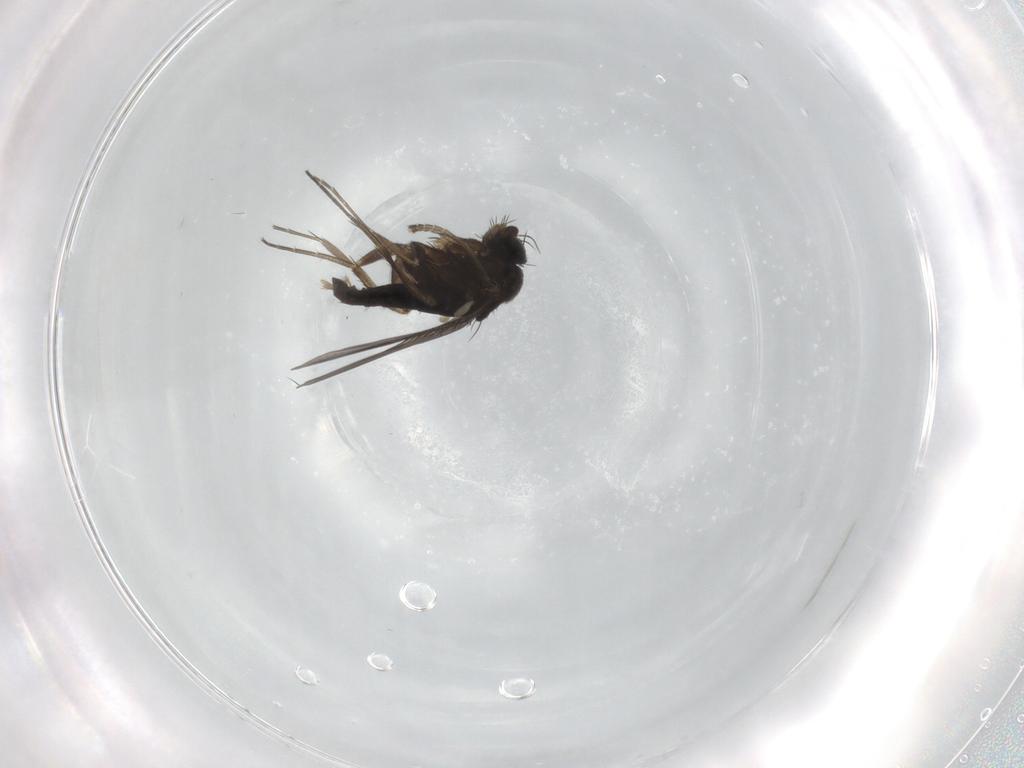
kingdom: Animalia
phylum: Arthropoda
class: Insecta
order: Diptera
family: Phoridae
